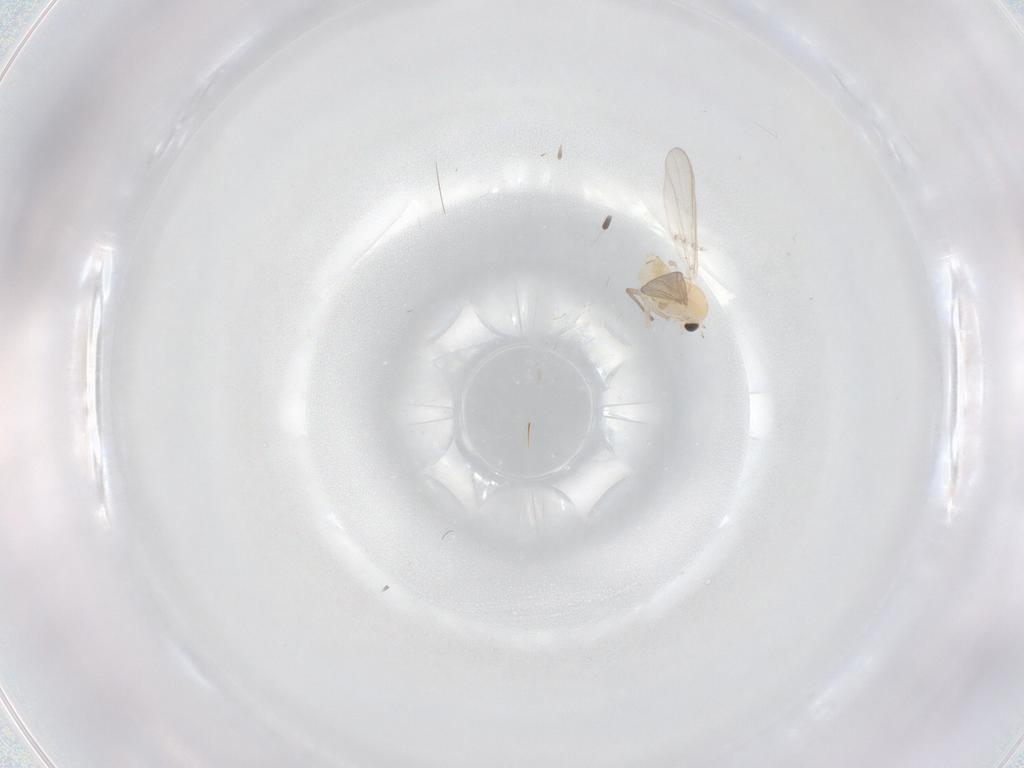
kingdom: Animalia
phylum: Arthropoda
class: Insecta
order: Diptera
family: Chironomidae
